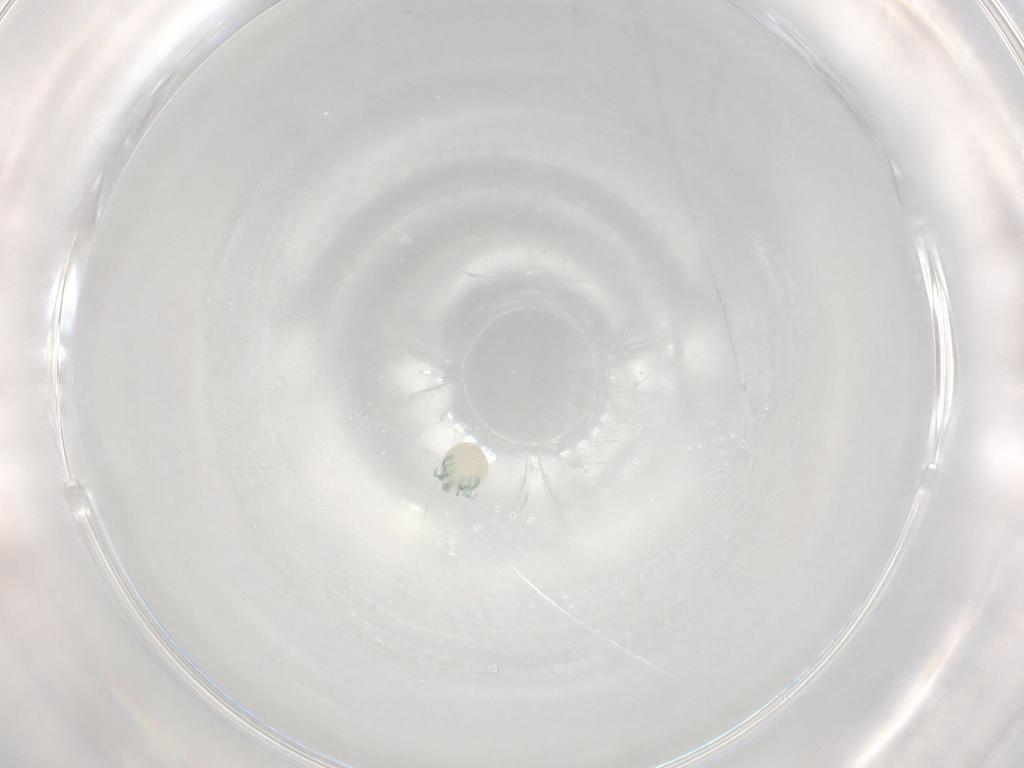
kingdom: Animalia
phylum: Arthropoda
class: Arachnida
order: Trombidiformes
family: Arrenuridae
